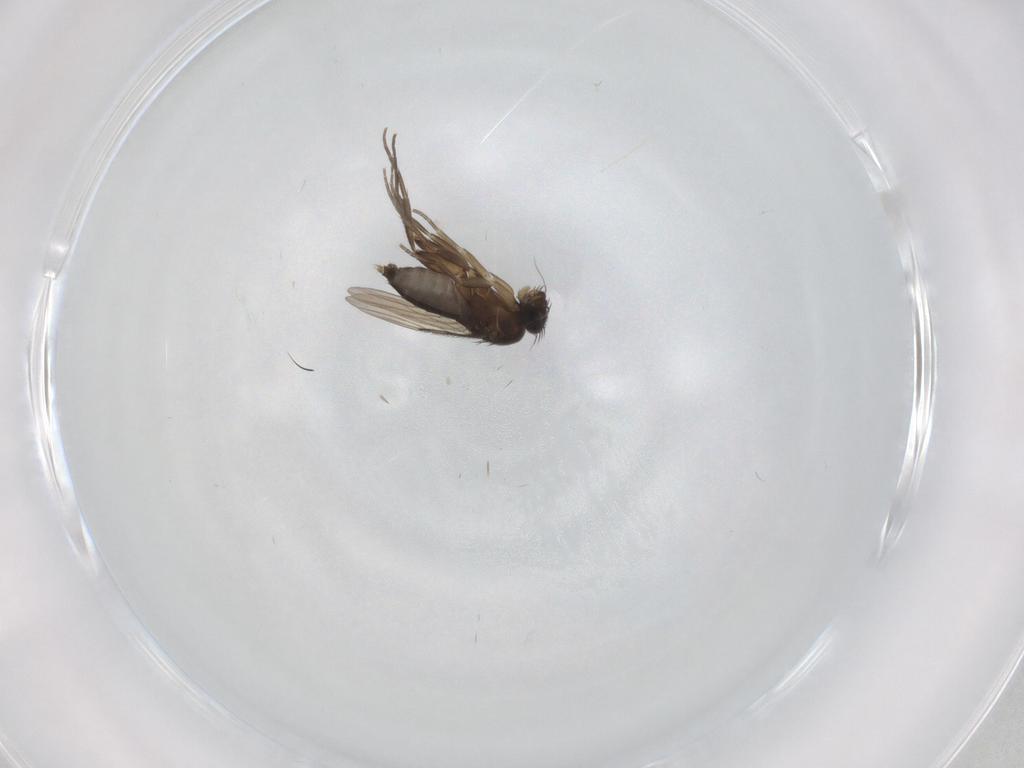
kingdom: Animalia
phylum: Arthropoda
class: Insecta
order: Diptera
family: Phoridae
